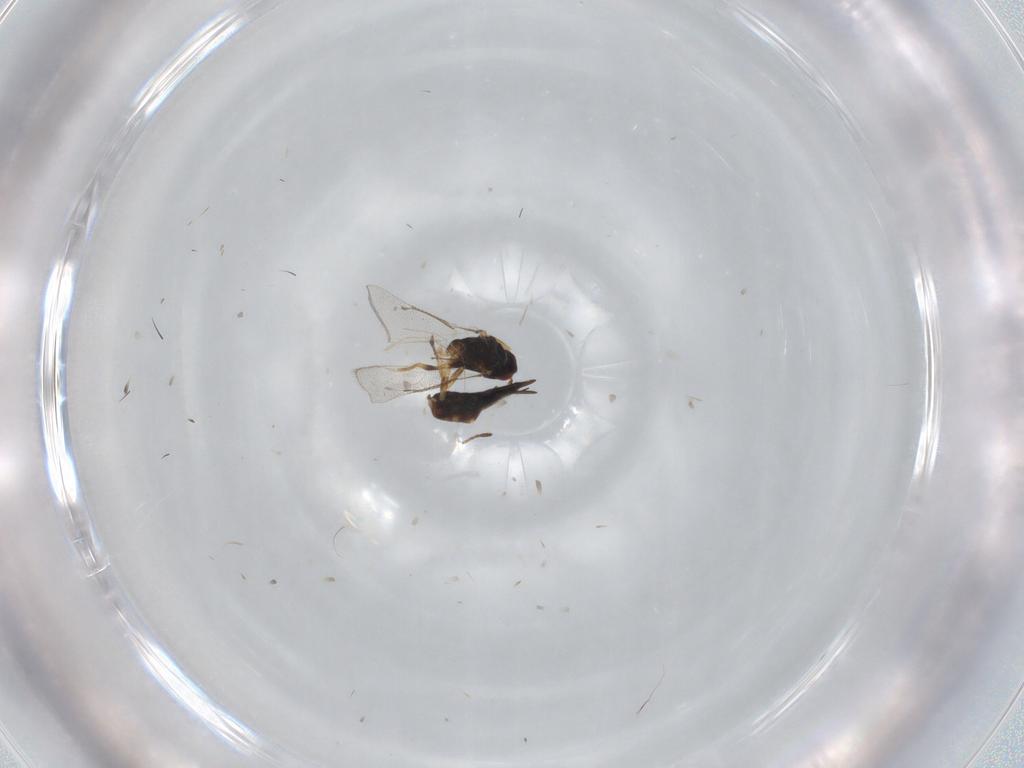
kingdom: Animalia
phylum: Arthropoda
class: Insecta
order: Hymenoptera
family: Eulophidae
